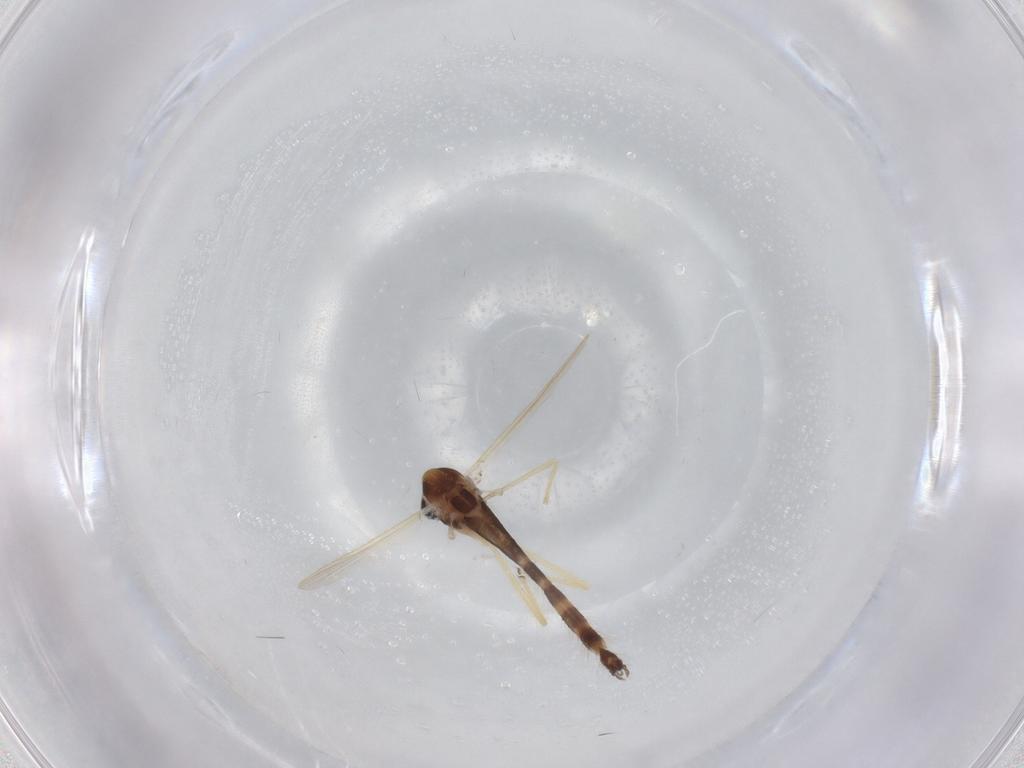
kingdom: Animalia
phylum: Arthropoda
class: Insecta
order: Diptera
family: Chironomidae
